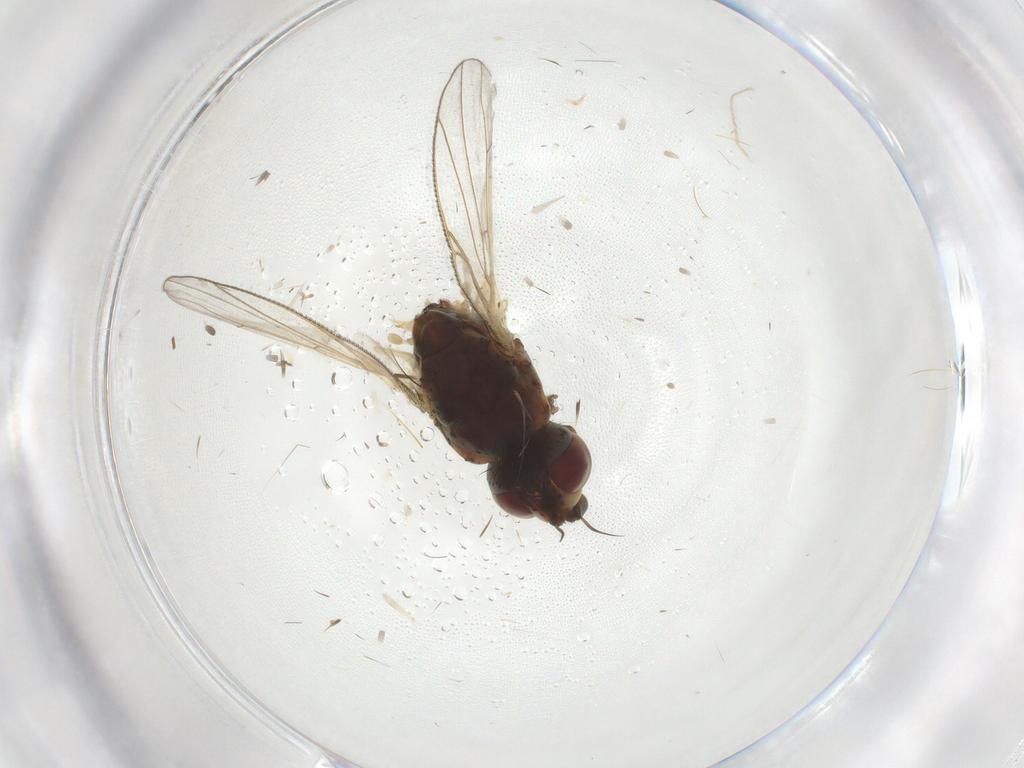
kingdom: Animalia
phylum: Arthropoda
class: Insecta
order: Diptera
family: Muscidae
